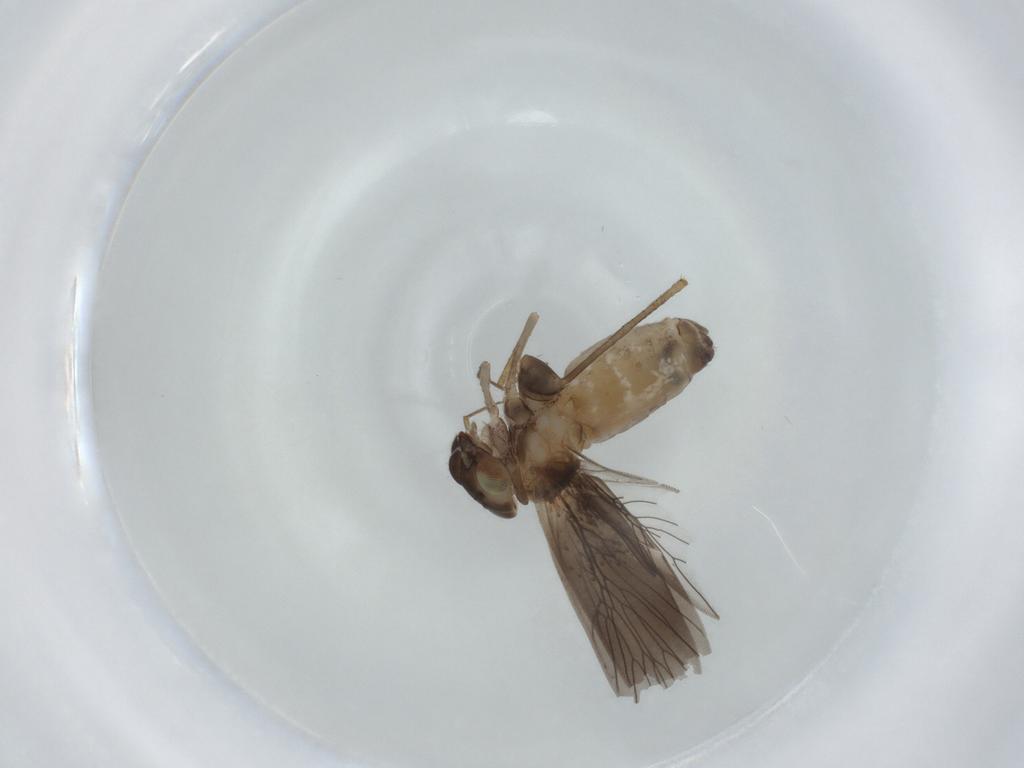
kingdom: Animalia
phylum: Arthropoda
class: Insecta
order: Psocodea
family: Lepidopsocidae
